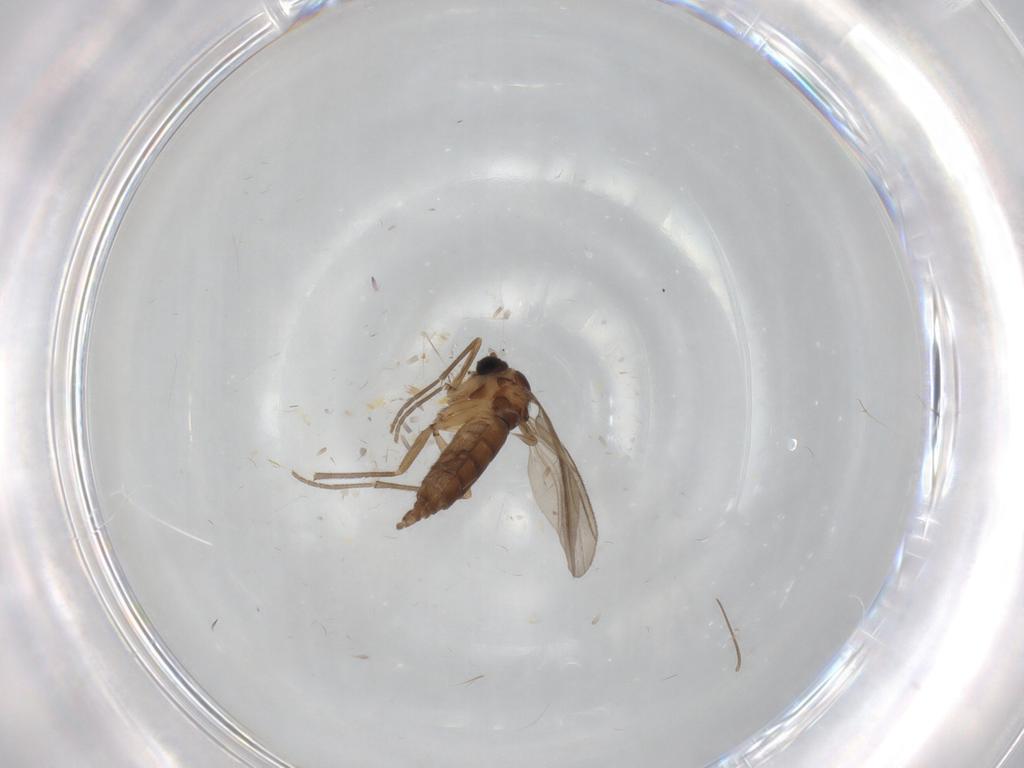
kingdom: Animalia
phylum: Arthropoda
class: Insecta
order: Diptera
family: Sciaridae
